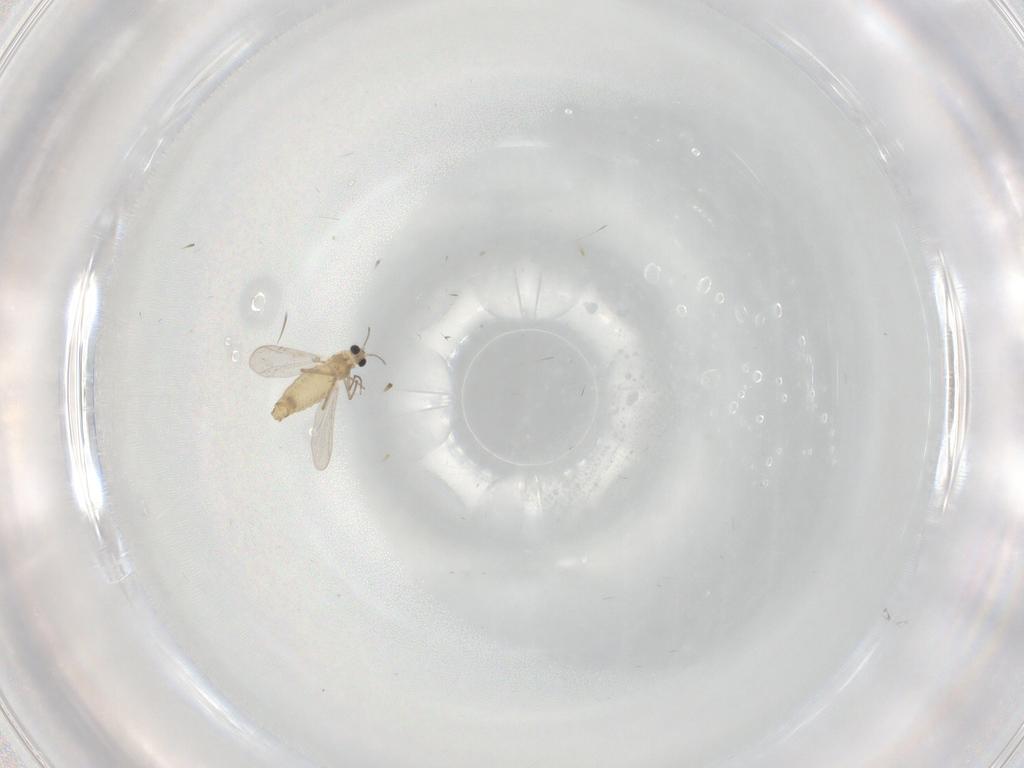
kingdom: Animalia
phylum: Arthropoda
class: Insecta
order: Diptera
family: Chironomidae
